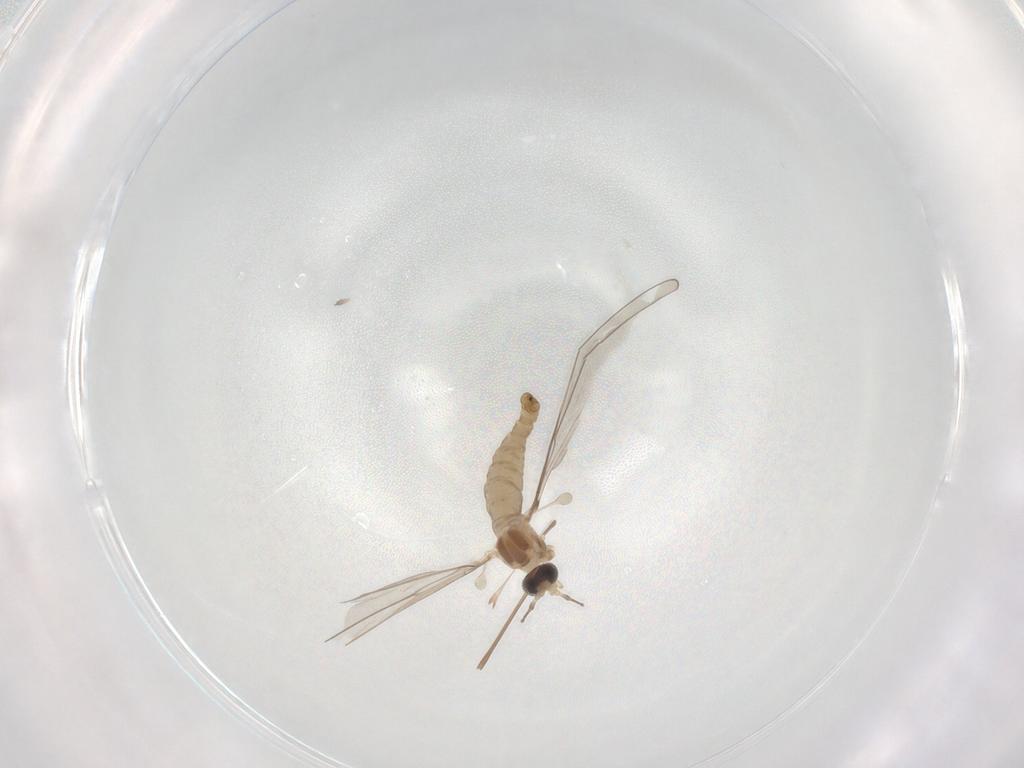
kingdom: Animalia
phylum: Arthropoda
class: Insecta
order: Diptera
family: Cecidomyiidae
